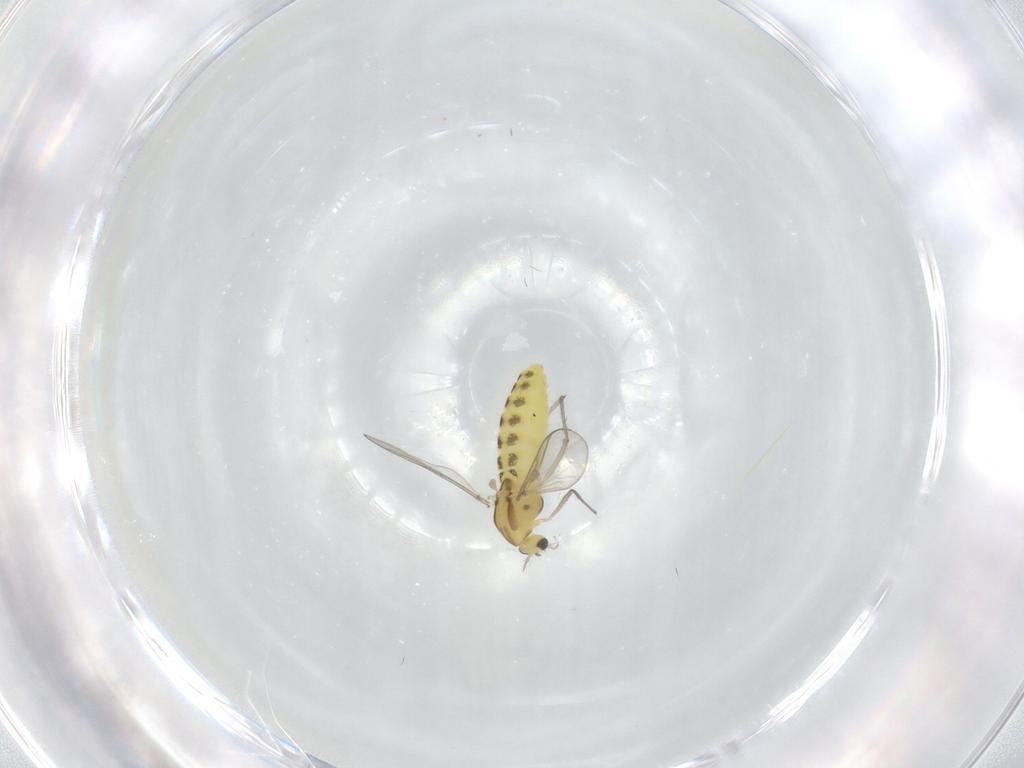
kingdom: Animalia
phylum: Arthropoda
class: Insecta
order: Diptera
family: Chironomidae
